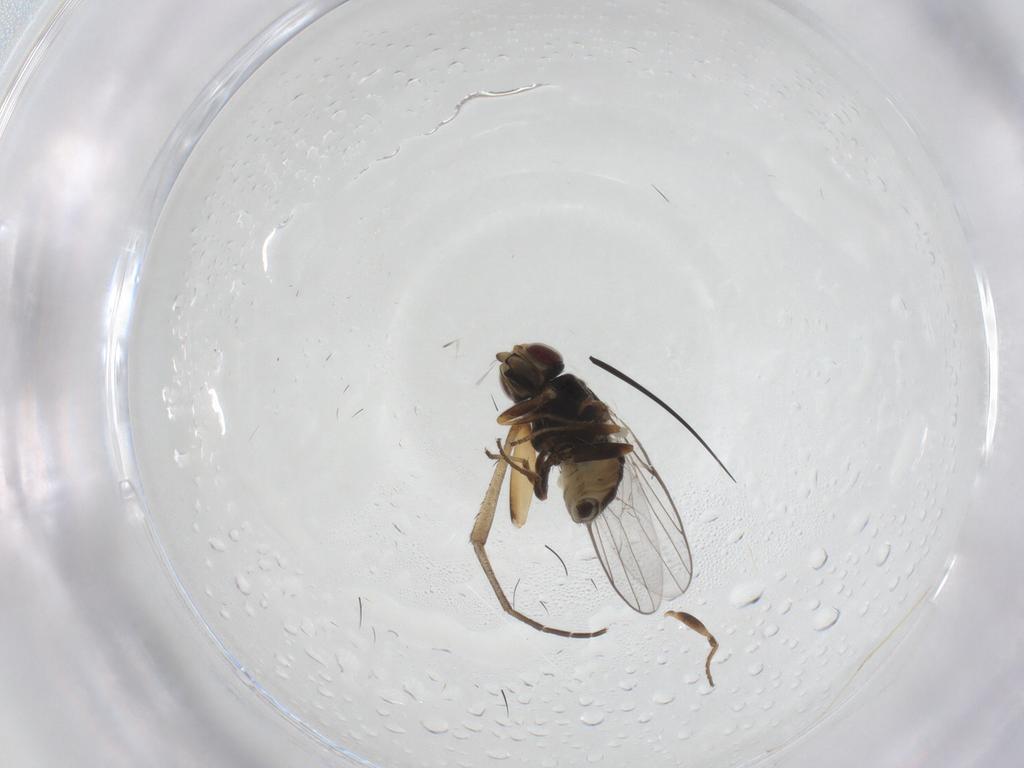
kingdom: Animalia
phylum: Arthropoda
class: Insecta
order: Diptera
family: Chloropidae
